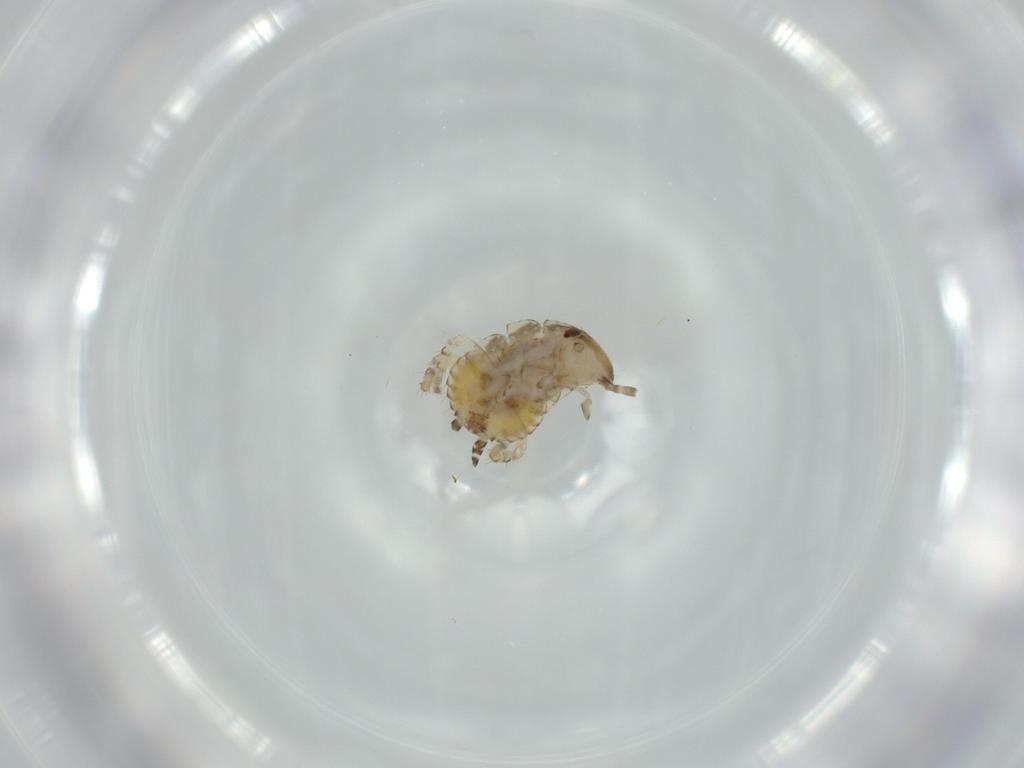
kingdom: Animalia
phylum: Arthropoda
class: Insecta
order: Blattodea
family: Ectobiidae
